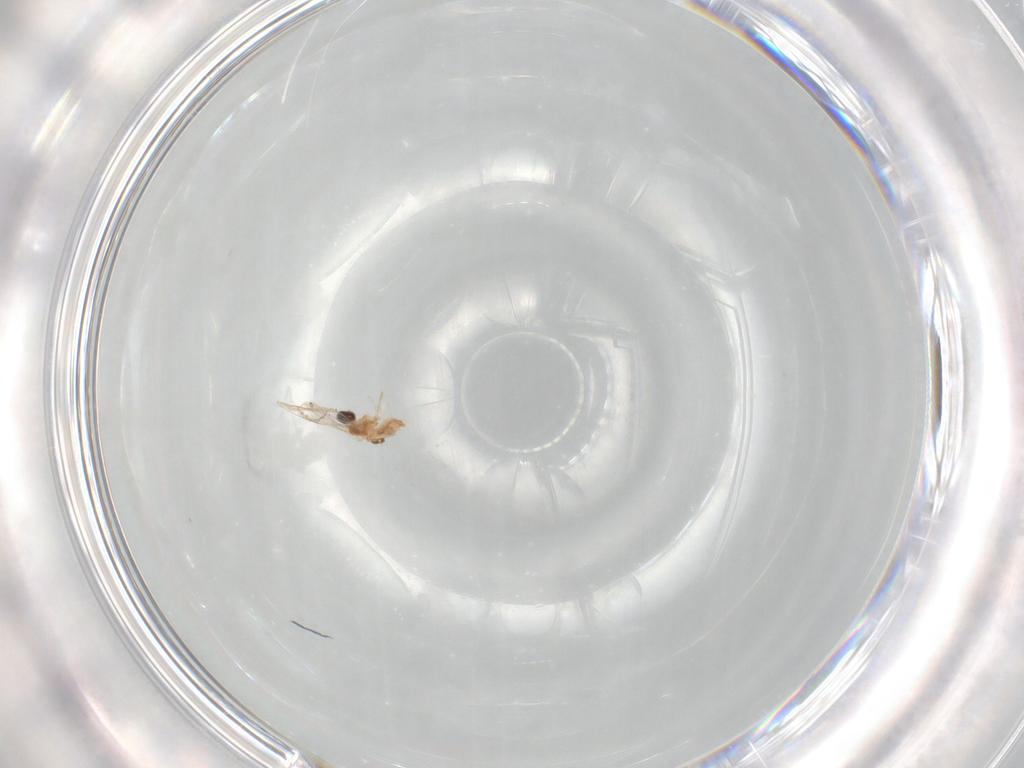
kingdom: Animalia
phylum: Arthropoda
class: Insecta
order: Diptera
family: Cecidomyiidae
